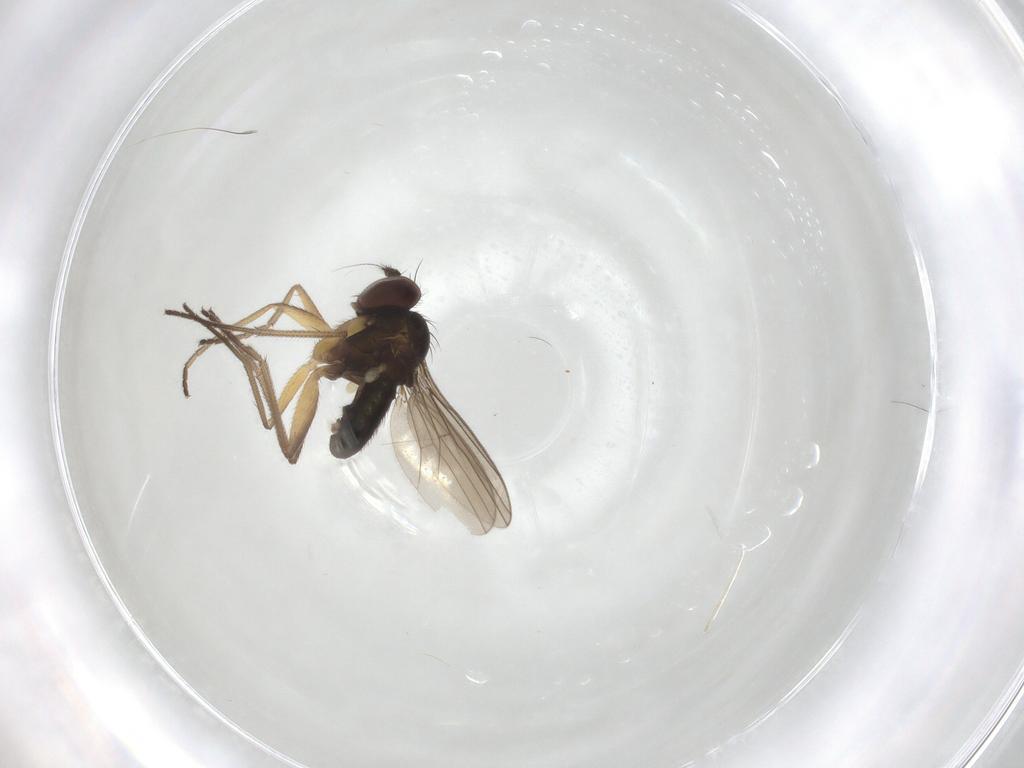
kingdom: Animalia
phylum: Arthropoda
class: Insecta
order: Diptera
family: Dolichopodidae
